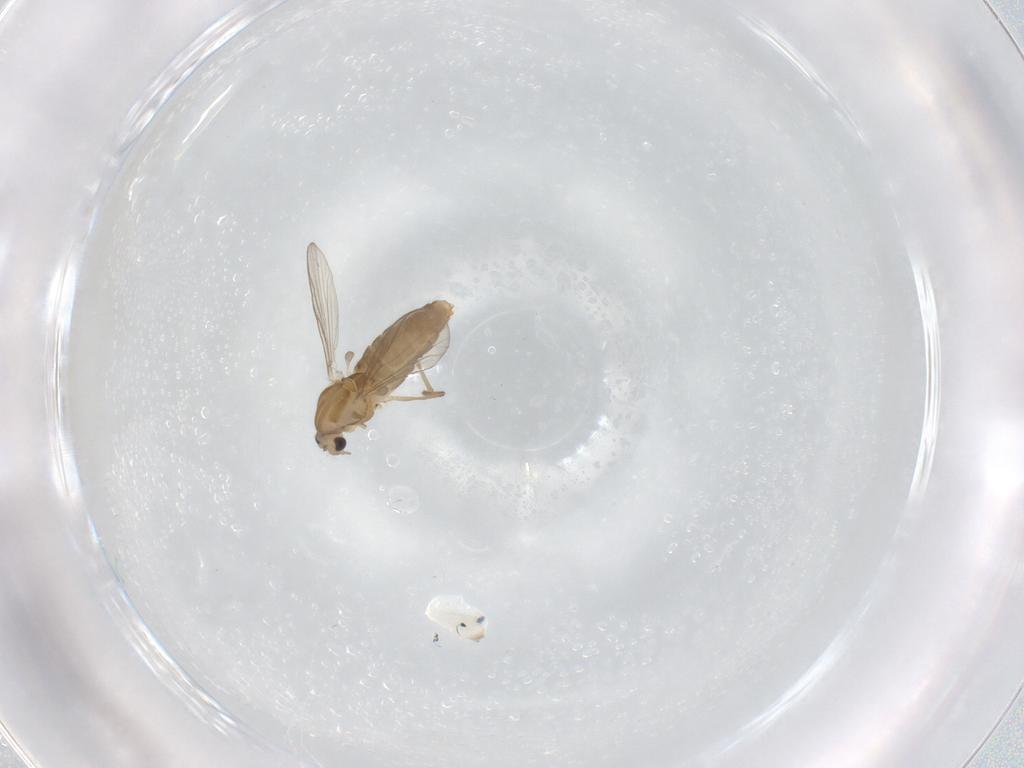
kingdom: Animalia
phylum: Arthropoda
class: Insecta
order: Diptera
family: Chironomidae
